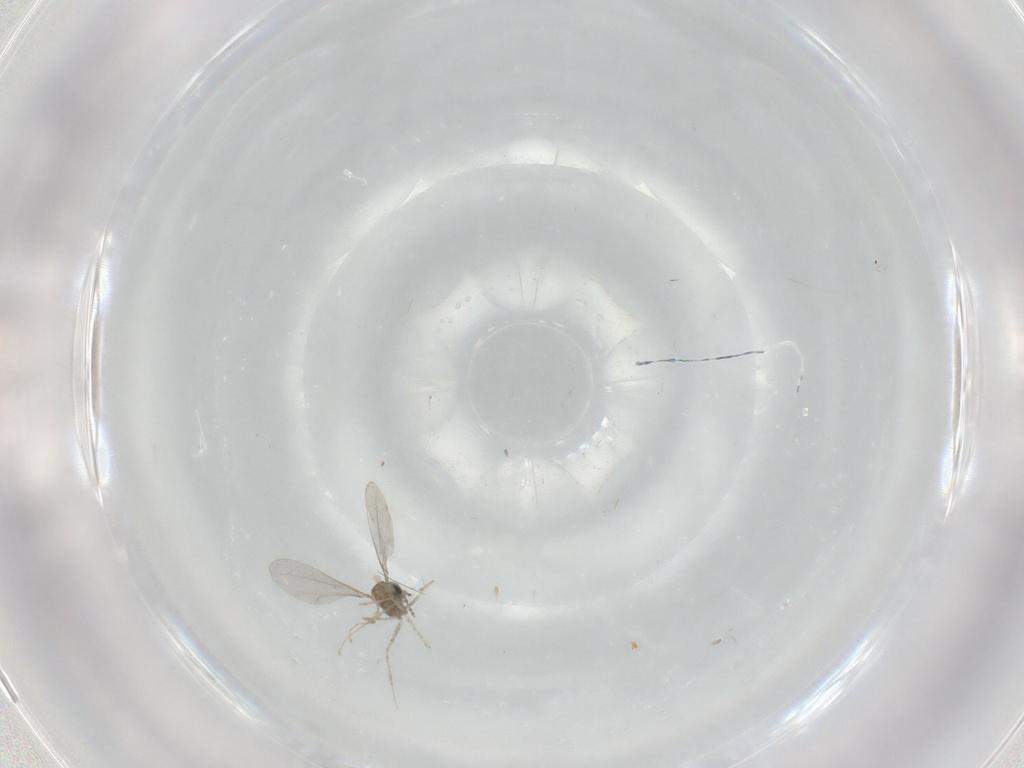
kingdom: Animalia
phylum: Arthropoda
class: Insecta
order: Diptera
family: Cecidomyiidae
